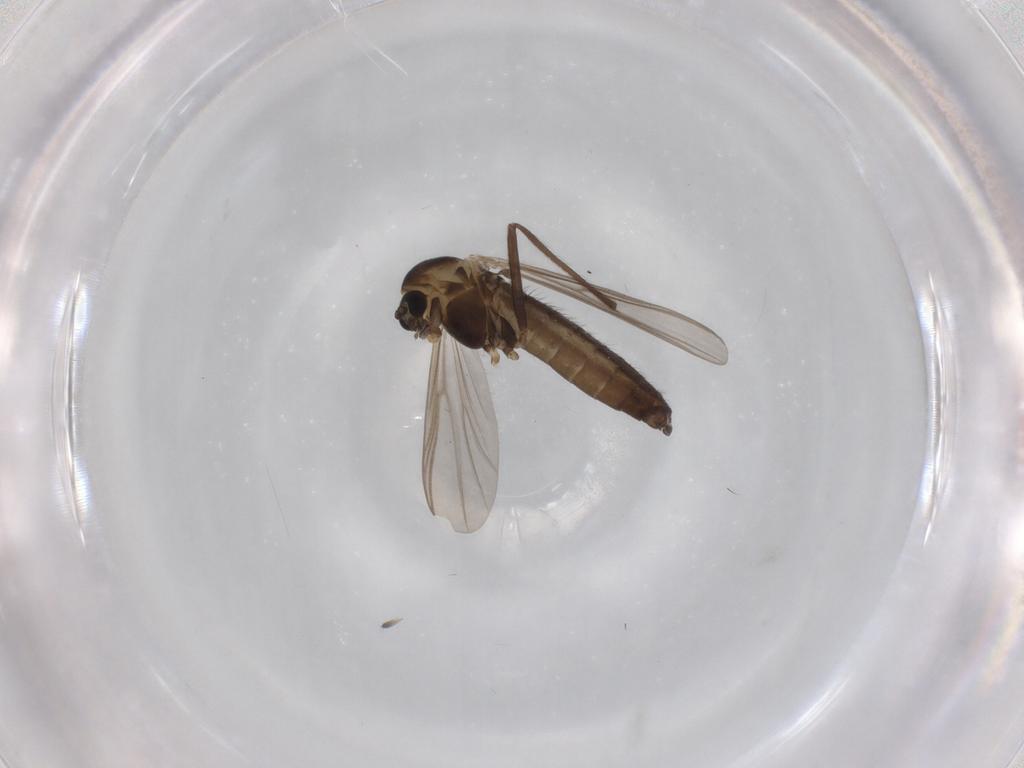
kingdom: Animalia
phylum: Arthropoda
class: Insecta
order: Diptera
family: Chironomidae
